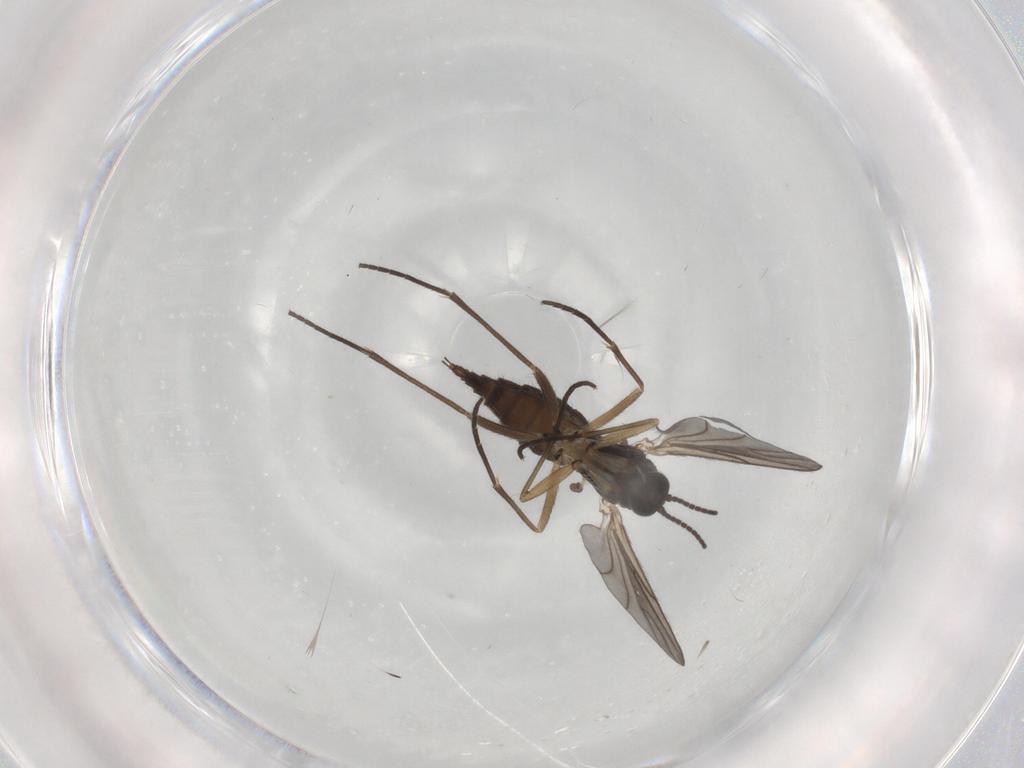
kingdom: Animalia
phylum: Arthropoda
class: Insecta
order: Diptera
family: Sciaridae
